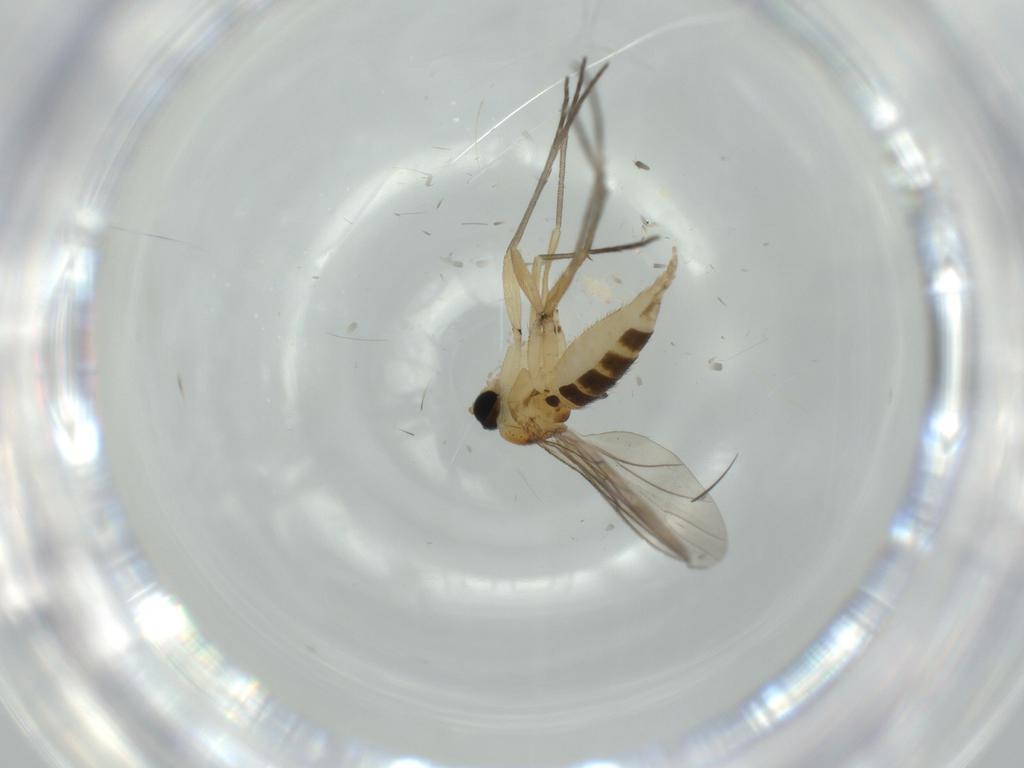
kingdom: Animalia
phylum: Arthropoda
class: Insecta
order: Diptera
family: Sciaridae
